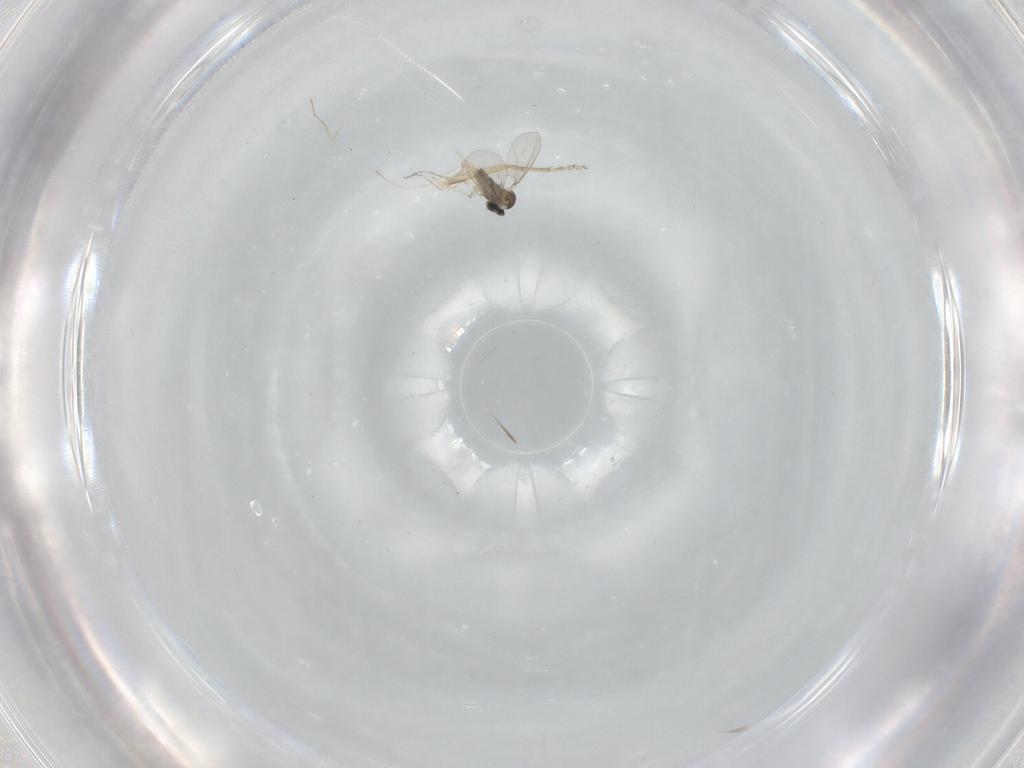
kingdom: Animalia
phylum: Arthropoda
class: Insecta
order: Diptera
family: Cecidomyiidae
